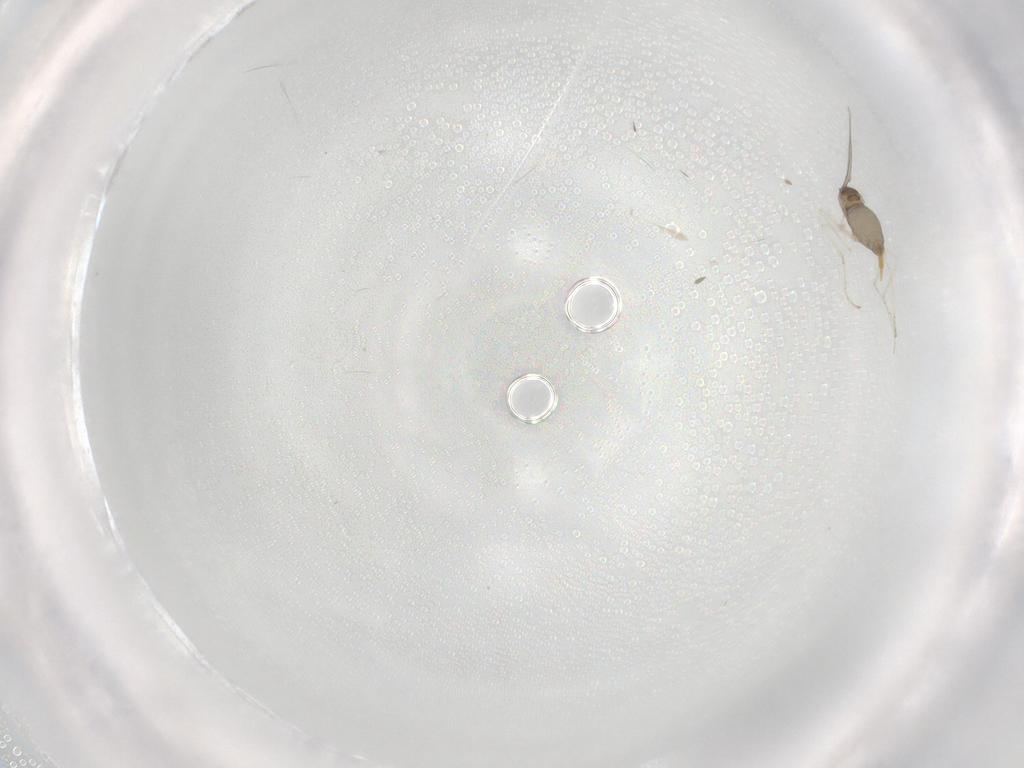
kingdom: Animalia
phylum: Arthropoda
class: Insecta
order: Diptera
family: Cecidomyiidae
